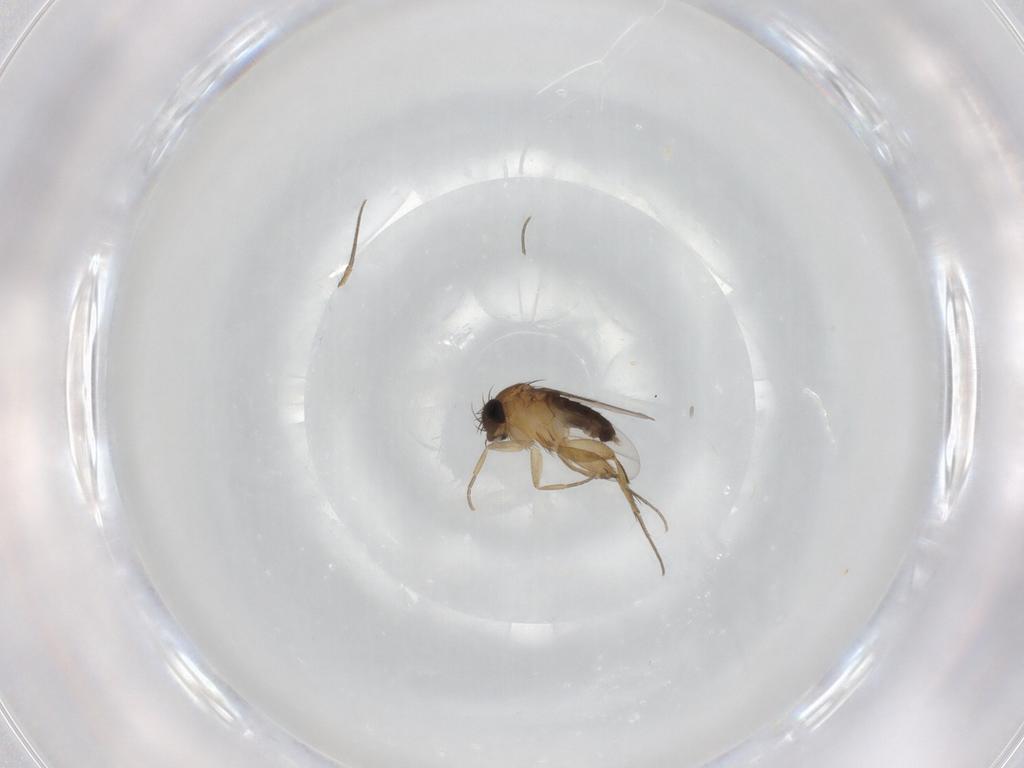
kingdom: Animalia
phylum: Arthropoda
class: Insecta
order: Diptera
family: Phoridae
